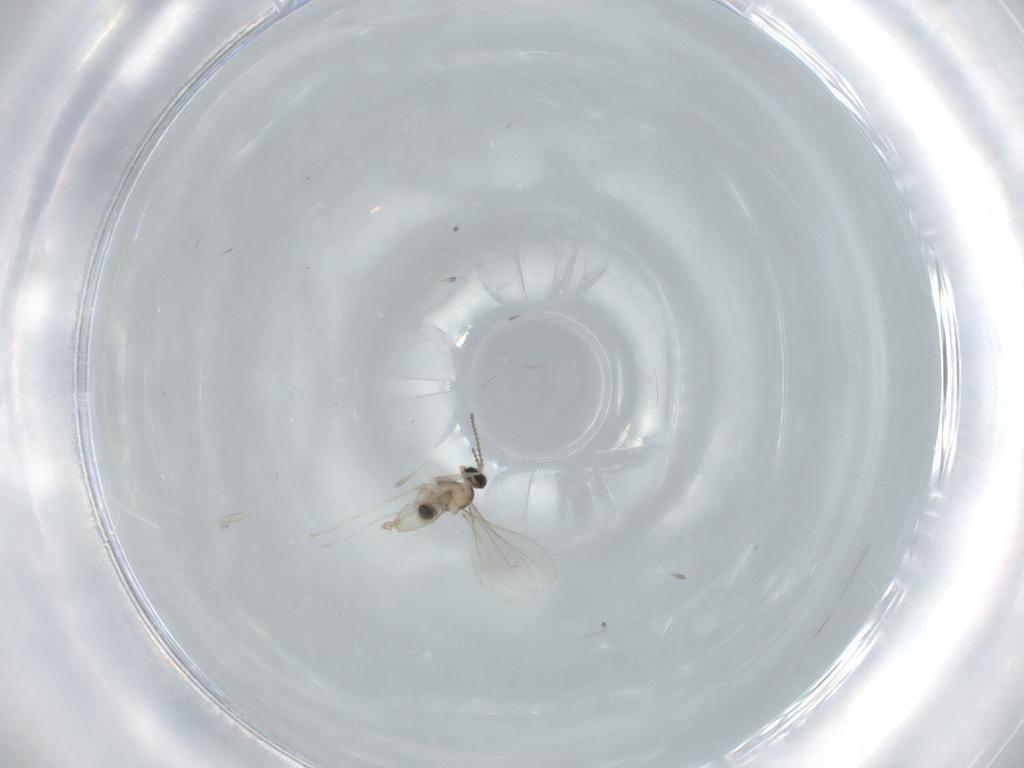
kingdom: Animalia
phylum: Arthropoda
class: Insecta
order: Diptera
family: Cecidomyiidae
